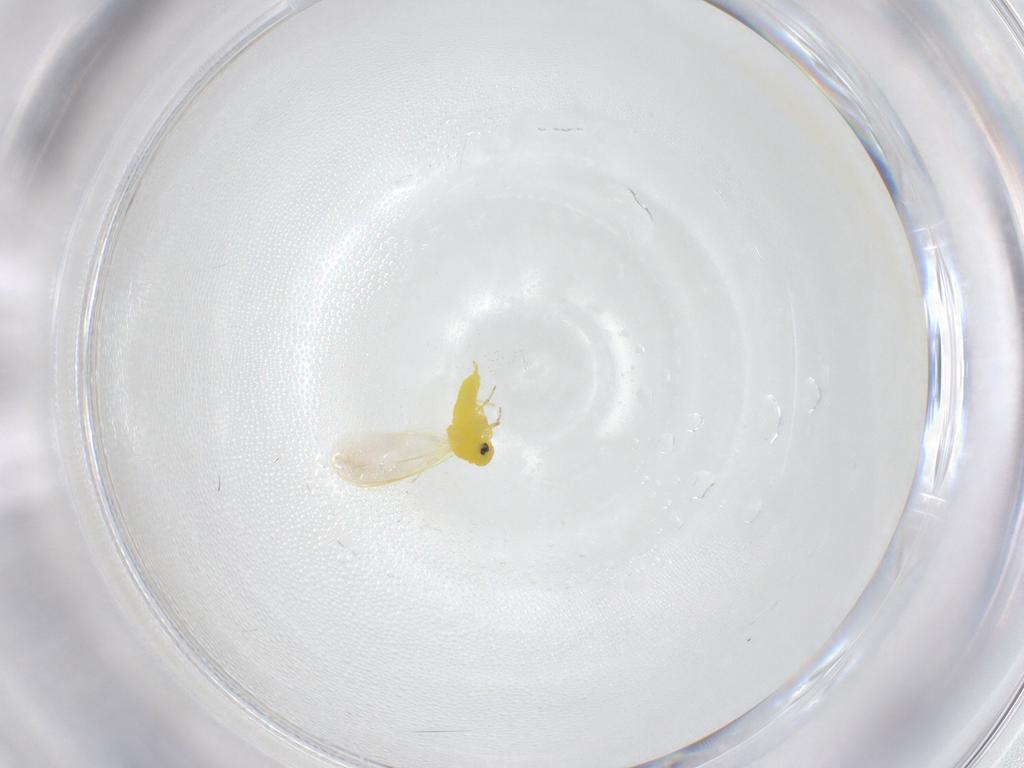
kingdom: Animalia
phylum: Arthropoda
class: Insecta
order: Hemiptera
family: Aleyrodidae
